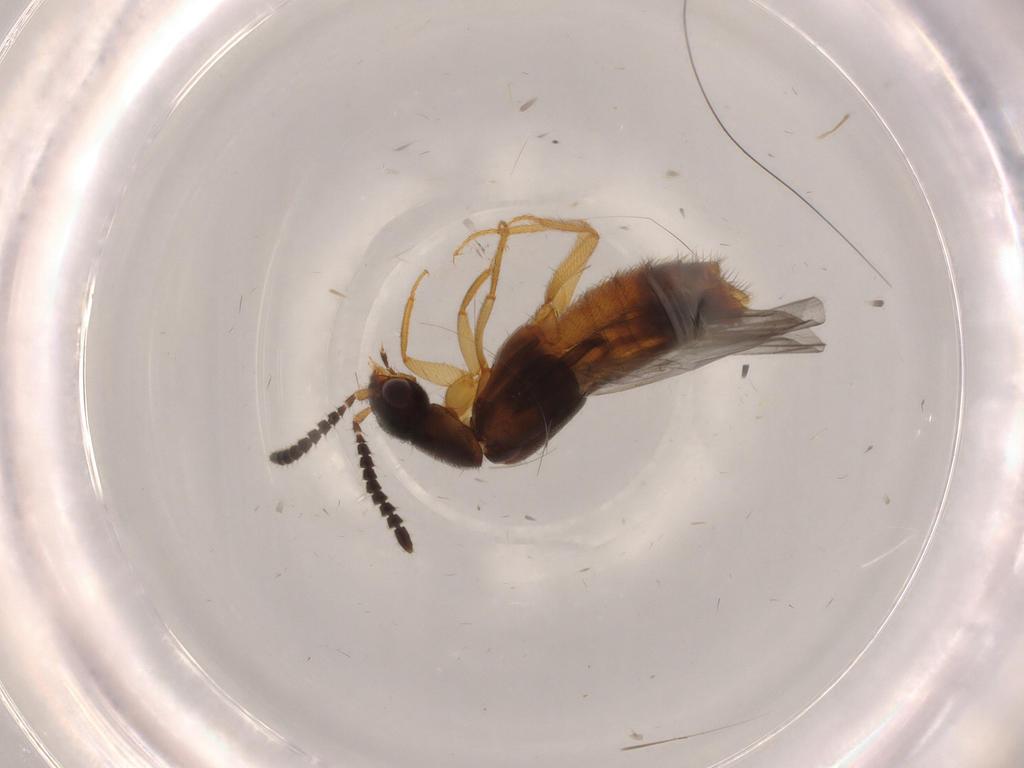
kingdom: Animalia
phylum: Arthropoda
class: Insecta
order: Coleoptera
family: Staphylinidae
